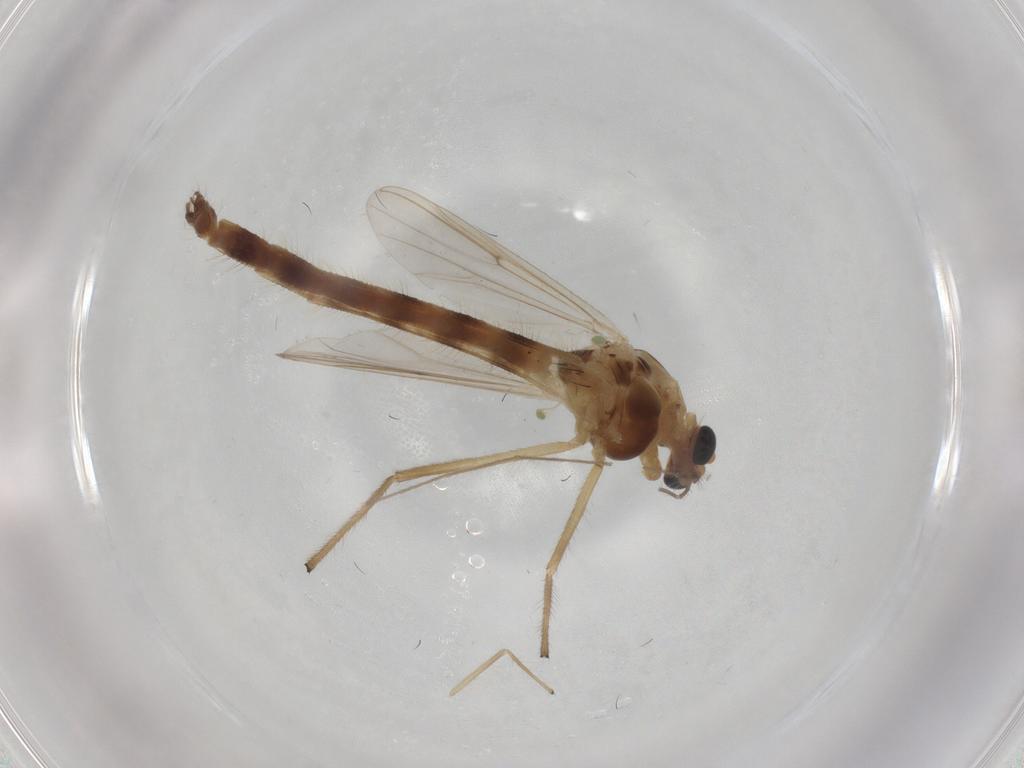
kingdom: Animalia
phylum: Arthropoda
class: Insecta
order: Diptera
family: Chironomidae
